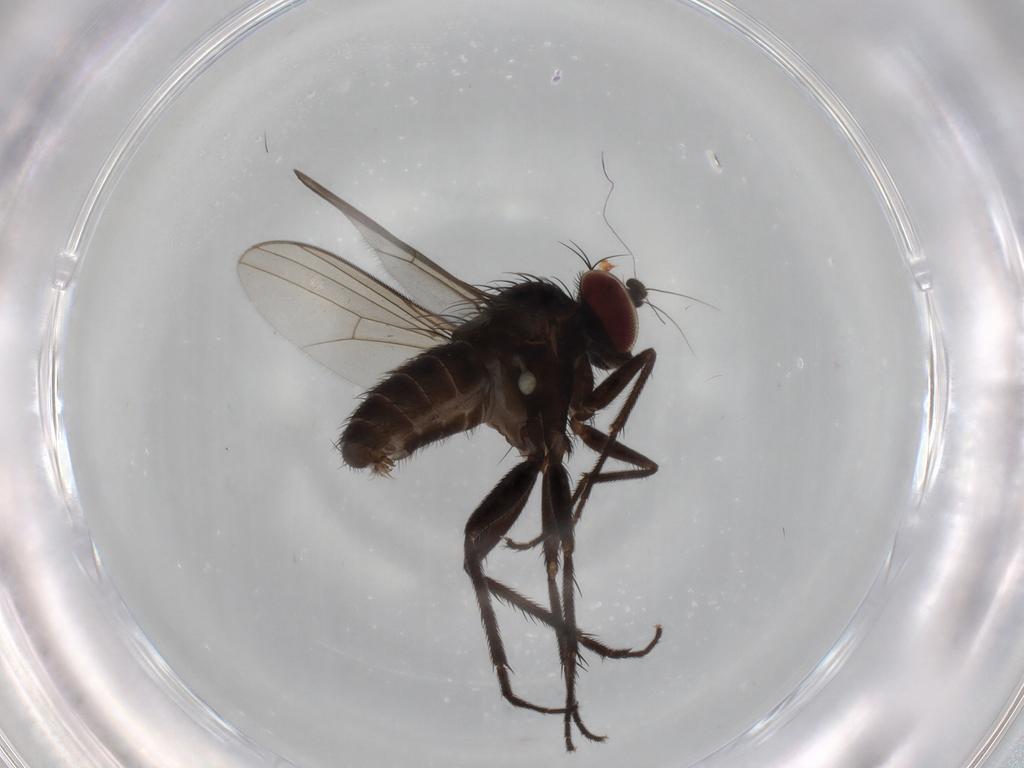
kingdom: Animalia
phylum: Arthropoda
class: Insecta
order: Diptera
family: Dolichopodidae
